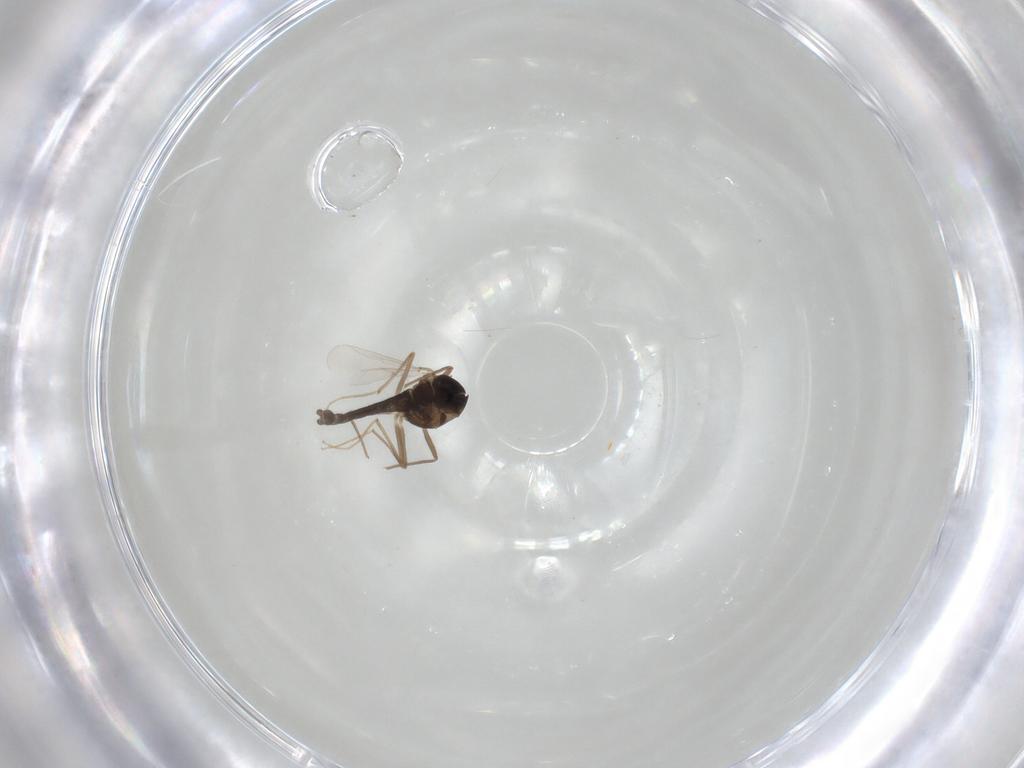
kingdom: Animalia
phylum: Arthropoda
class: Insecta
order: Diptera
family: Chironomidae
